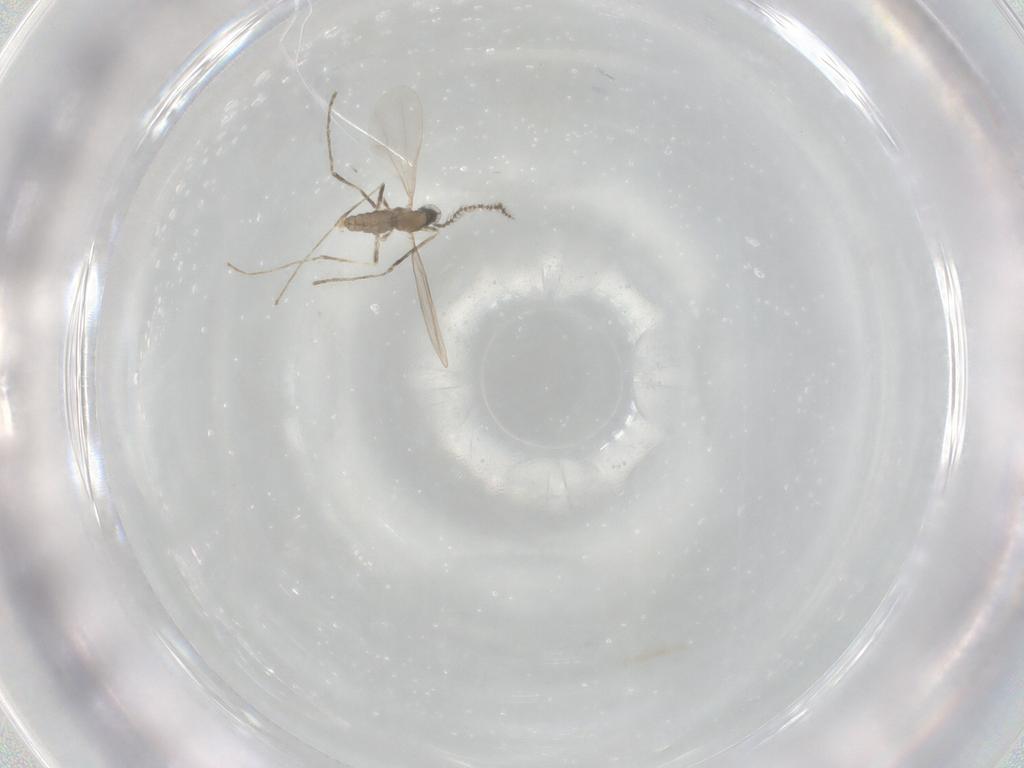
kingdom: Animalia
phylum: Arthropoda
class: Insecta
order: Diptera
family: Cecidomyiidae
